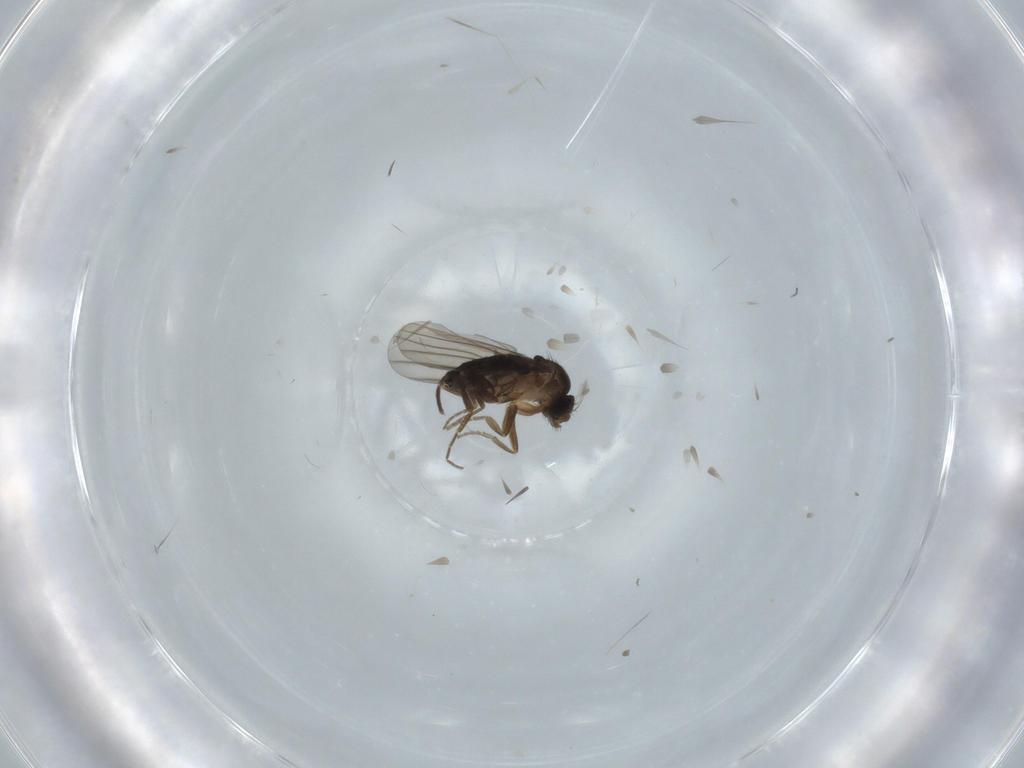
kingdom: Animalia
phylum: Arthropoda
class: Insecta
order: Diptera
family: Phoridae
